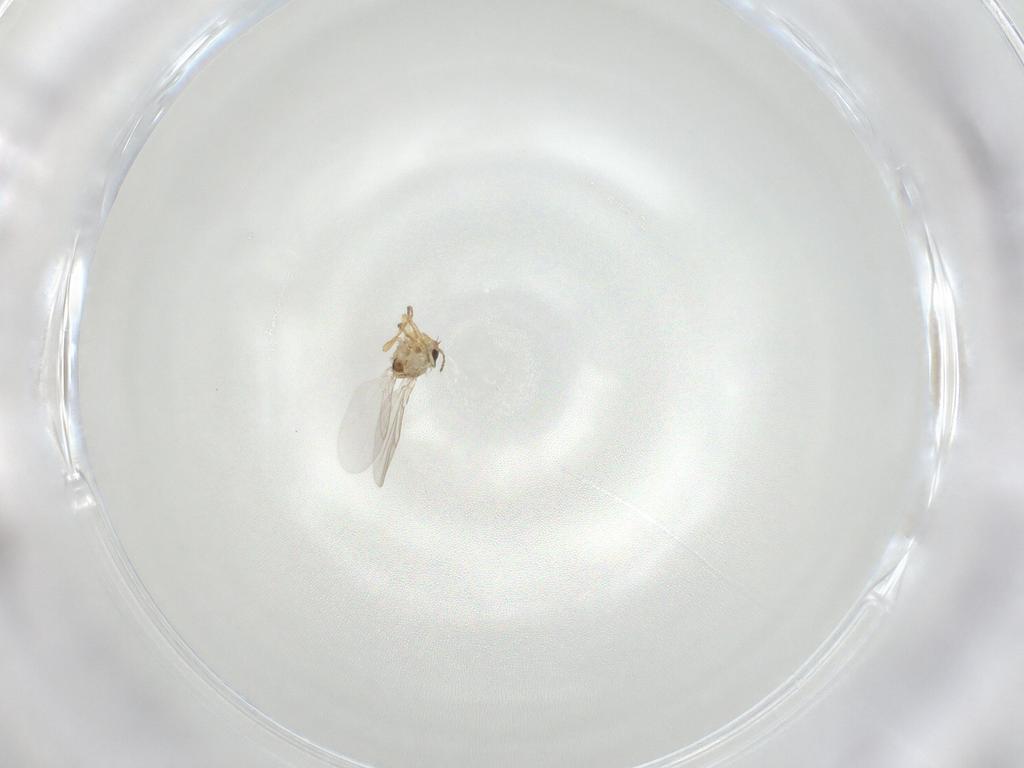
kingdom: Animalia
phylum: Arthropoda
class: Insecta
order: Diptera
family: Agromyzidae
